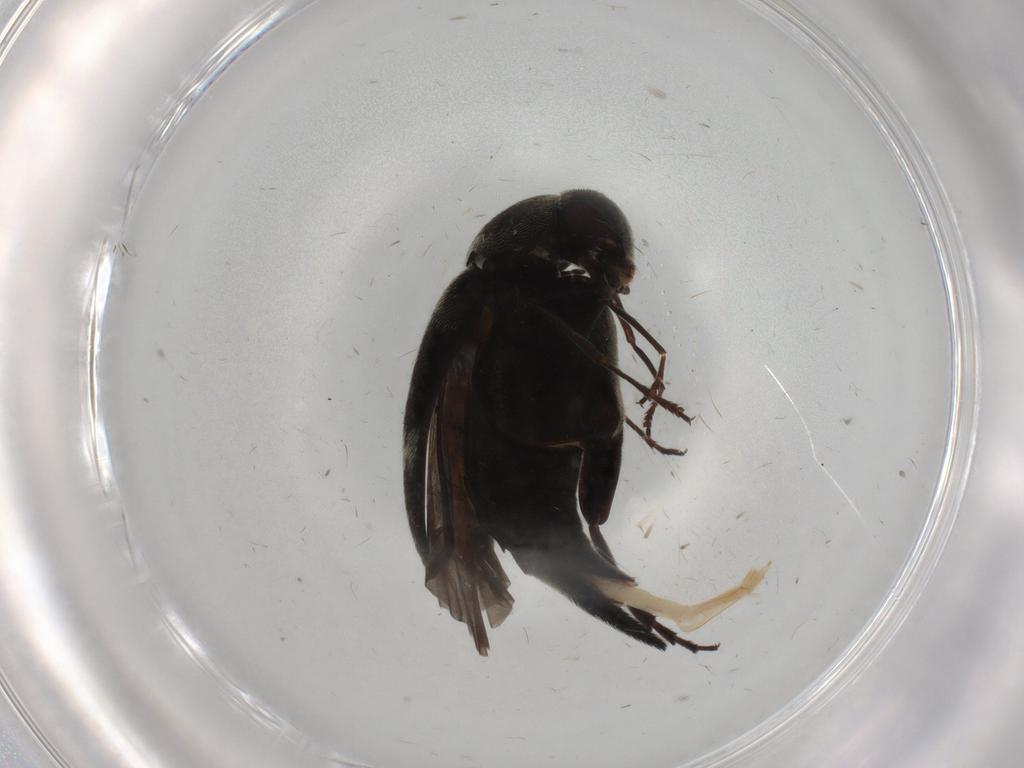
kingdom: Animalia
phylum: Arthropoda
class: Insecta
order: Coleoptera
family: Mordellidae
